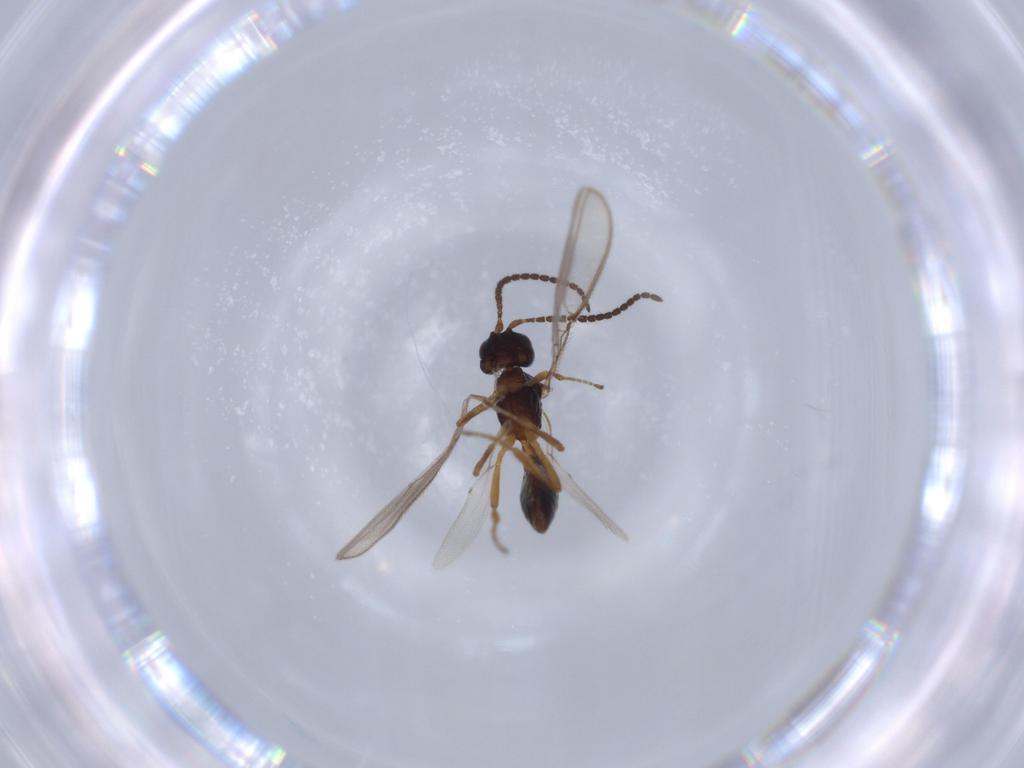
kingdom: Animalia
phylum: Arthropoda
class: Insecta
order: Hymenoptera
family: Braconidae
